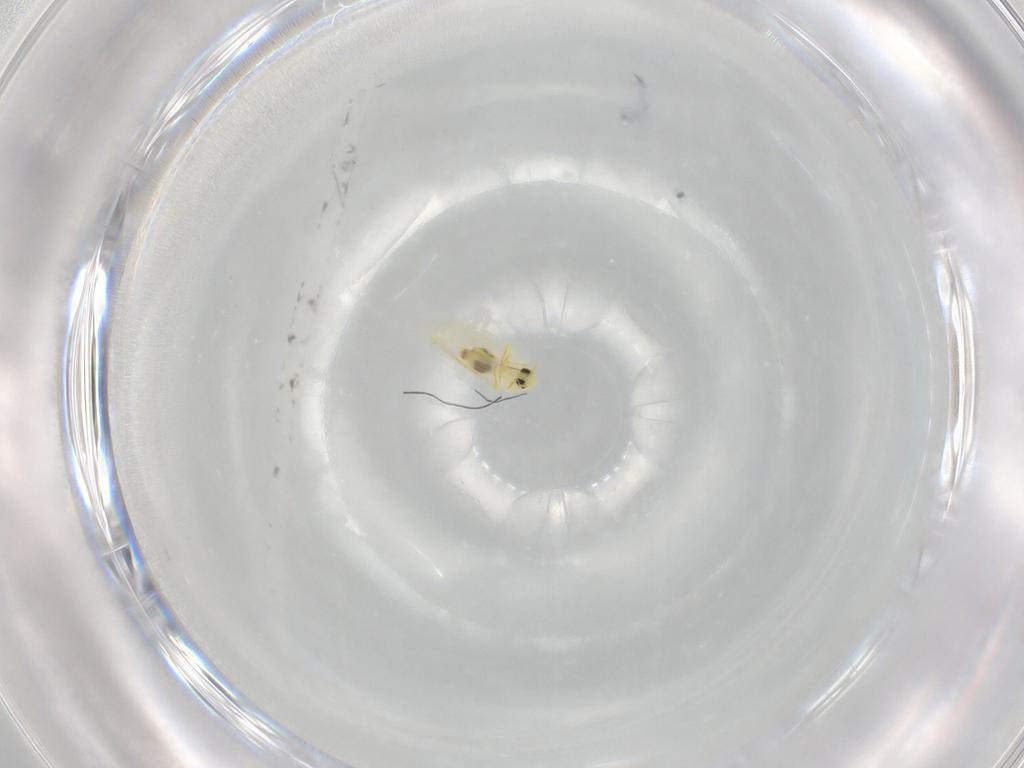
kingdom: Animalia
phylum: Arthropoda
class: Insecta
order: Hemiptera
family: Aleyrodidae
